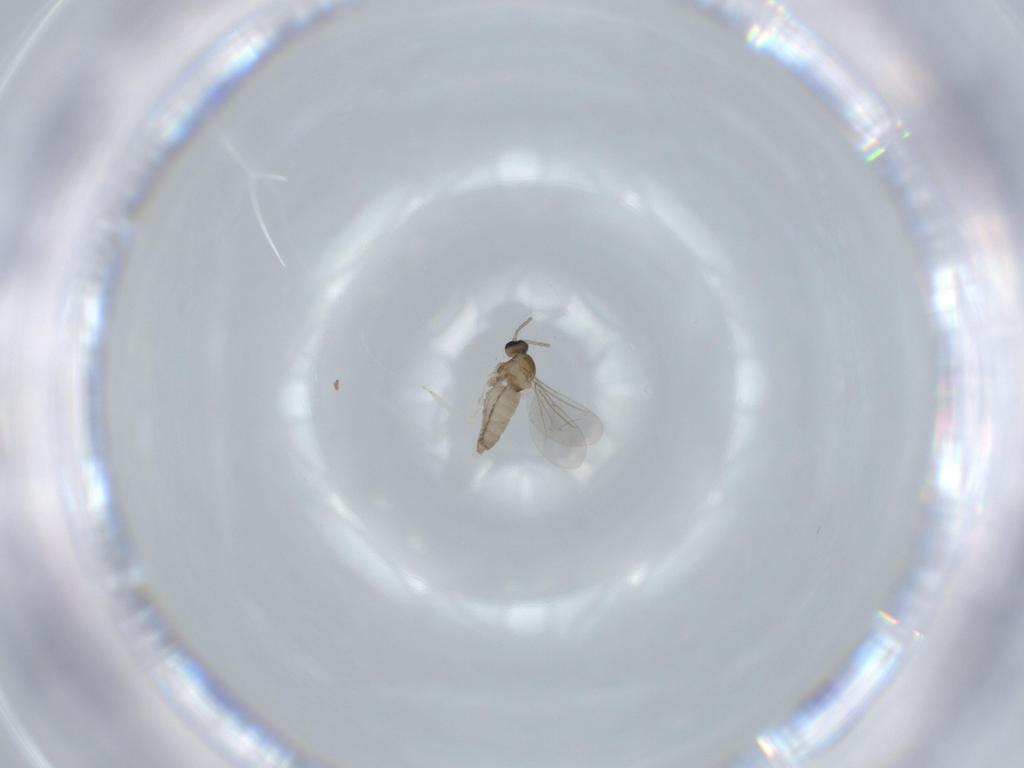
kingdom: Animalia
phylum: Arthropoda
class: Insecta
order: Diptera
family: Cecidomyiidae
